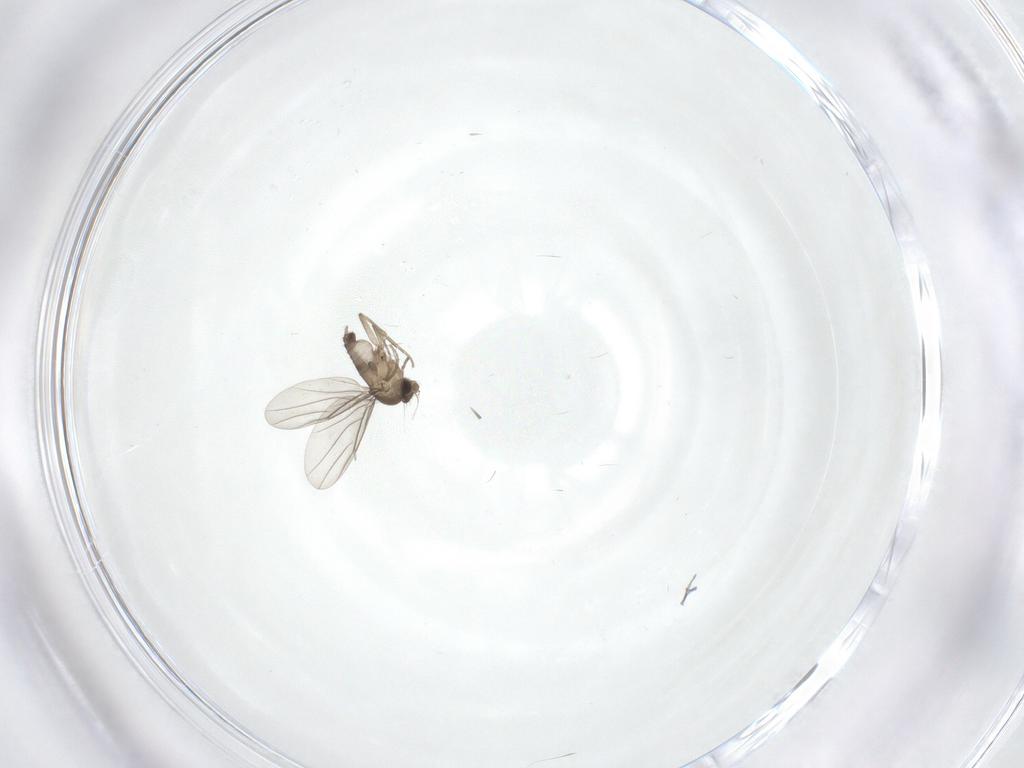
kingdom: Animalia
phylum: Arthropoda
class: Insecta
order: Diptera
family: Phoridae
